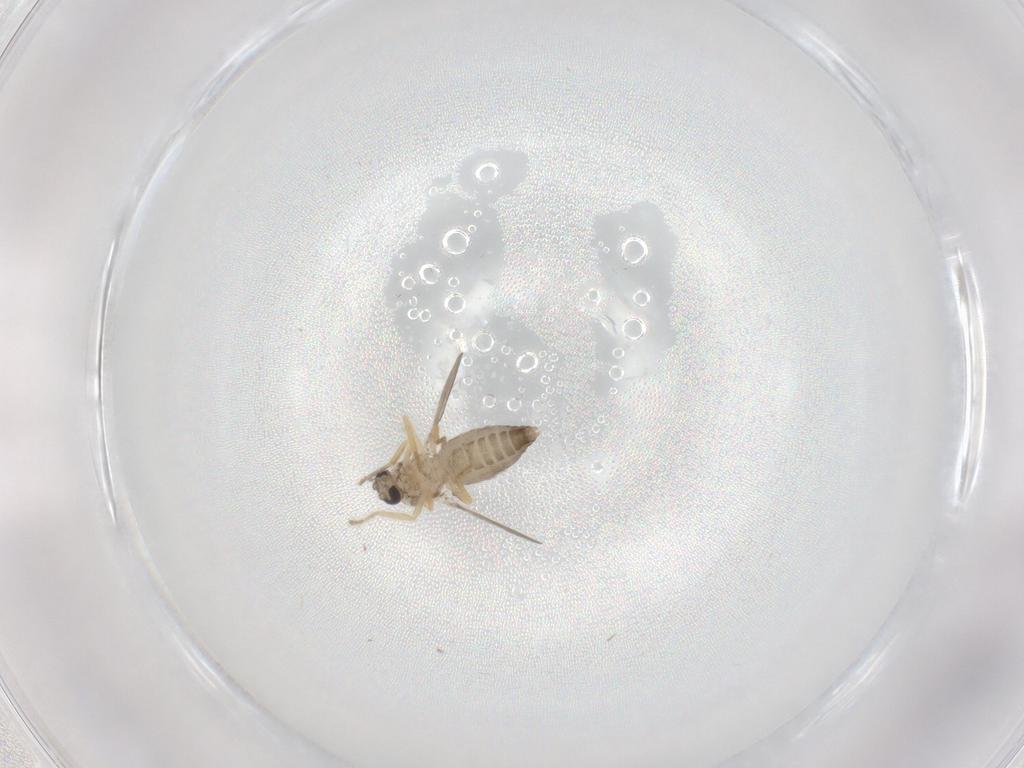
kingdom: Animalia
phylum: Arthropoda
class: Insecta
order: Diptera
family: Ceratopogonidae
